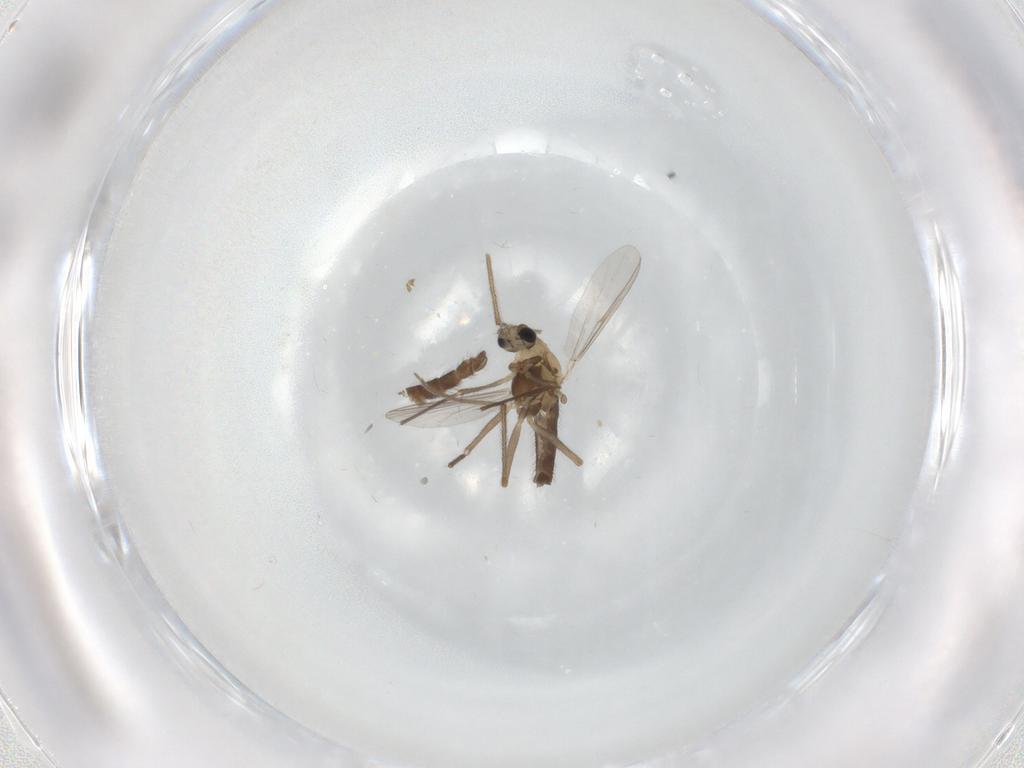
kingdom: Animalia
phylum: Arthropoda
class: Insecta
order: Diptera
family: Chironomidae
